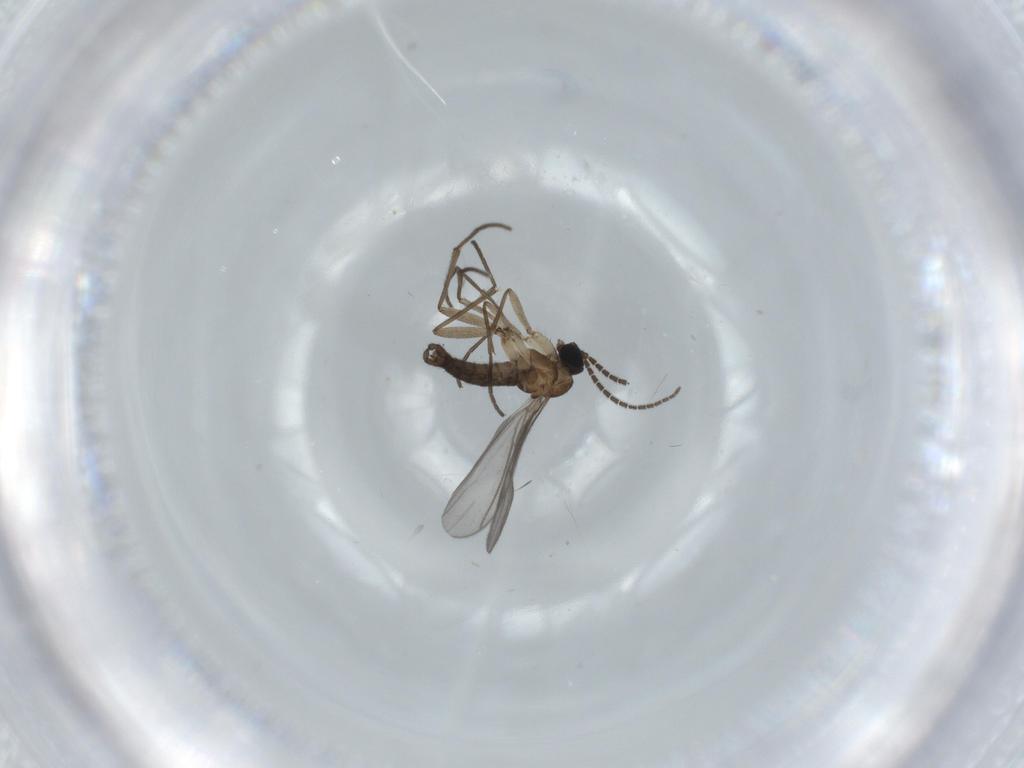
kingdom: Animalia
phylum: Arthropoda
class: Insecta
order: Diptera
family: Sciaridae
